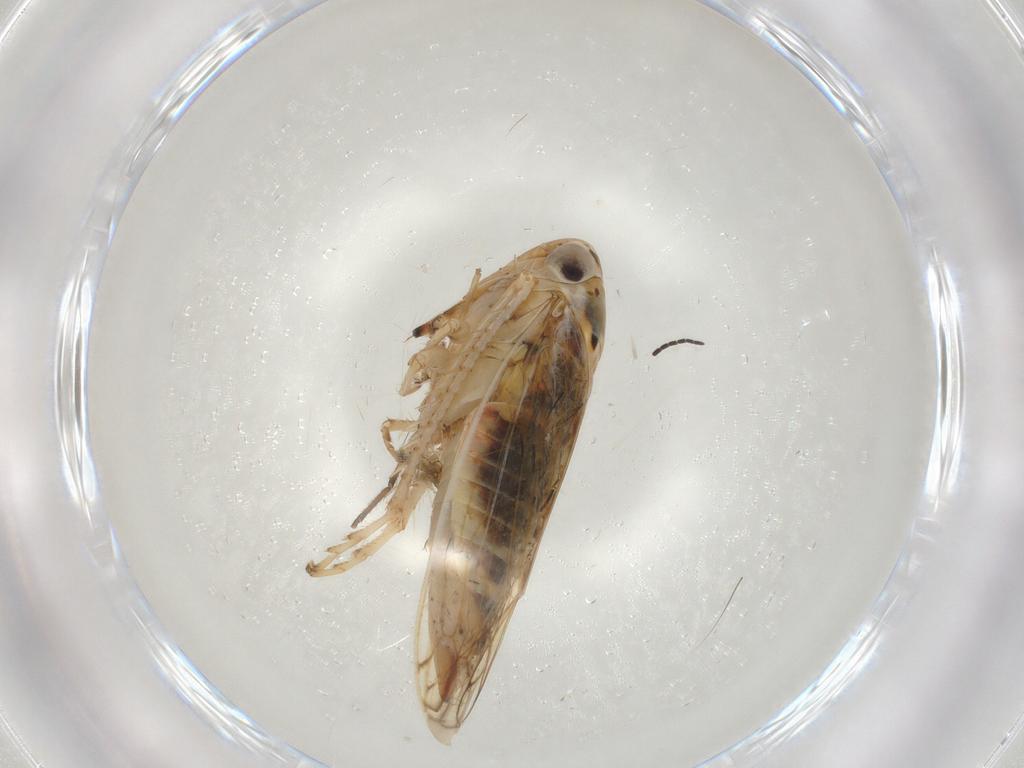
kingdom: Animalia
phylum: Arthropoda
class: Insecta
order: Hemiptera
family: Cicadellidae
